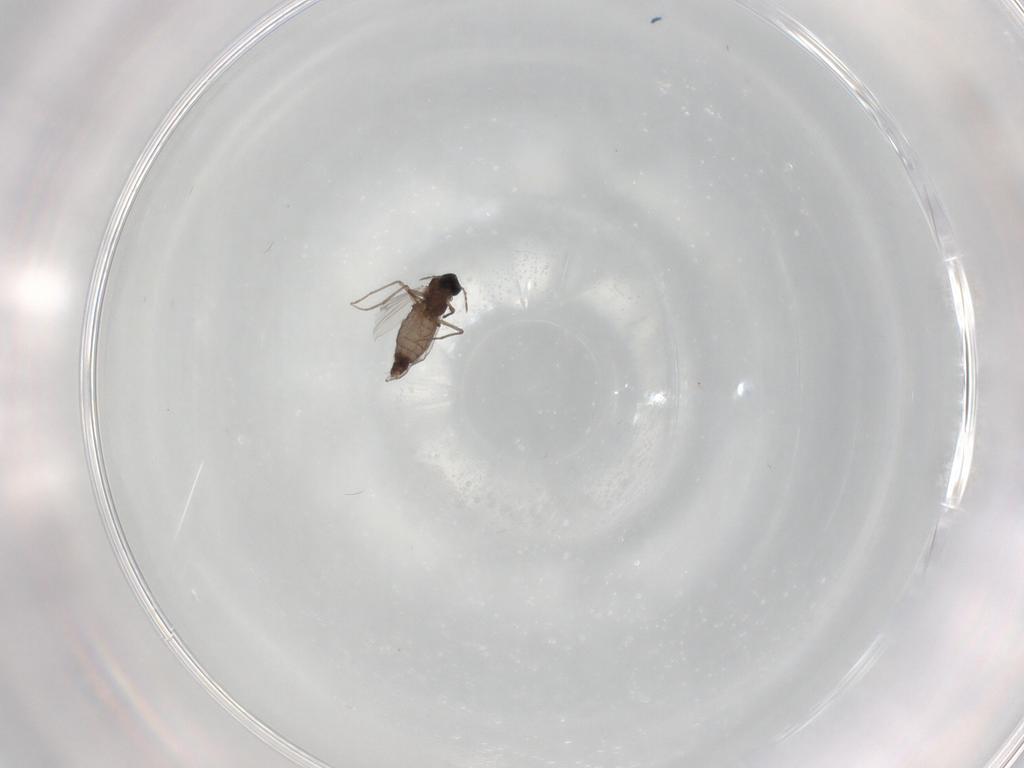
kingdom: Animalia
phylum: Arthropoda
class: Insecta
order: Diptera
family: Chironomidae
